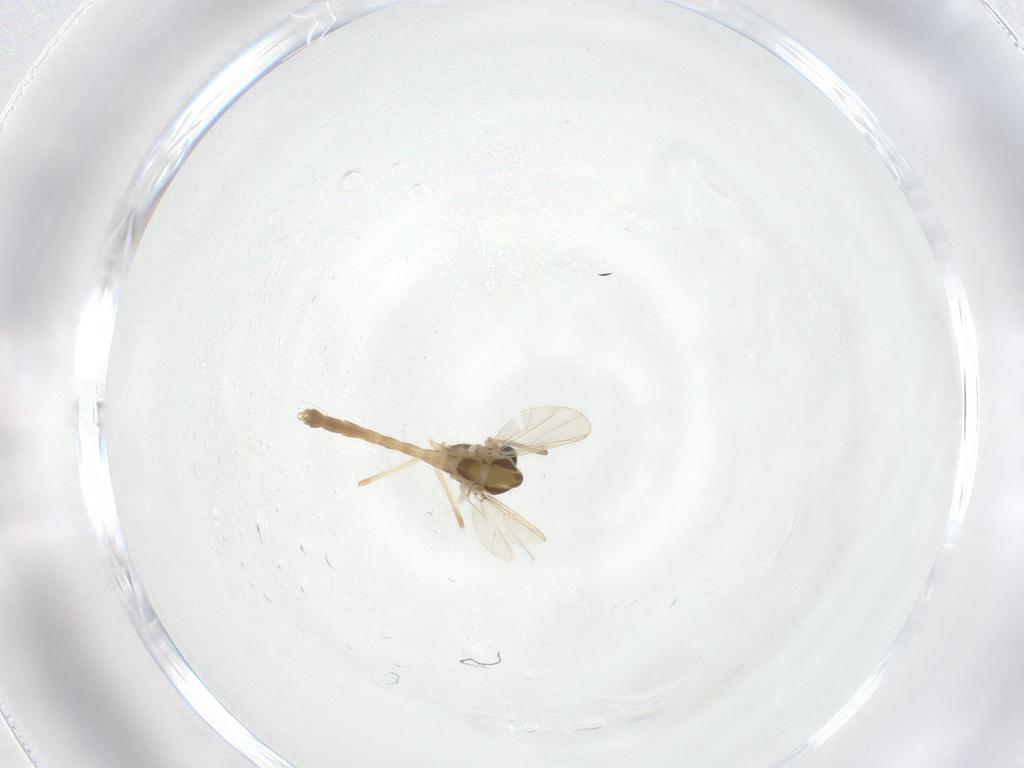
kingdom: Animalia
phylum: Arthropoda
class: Insecta
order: Diptera
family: Chironomidae
